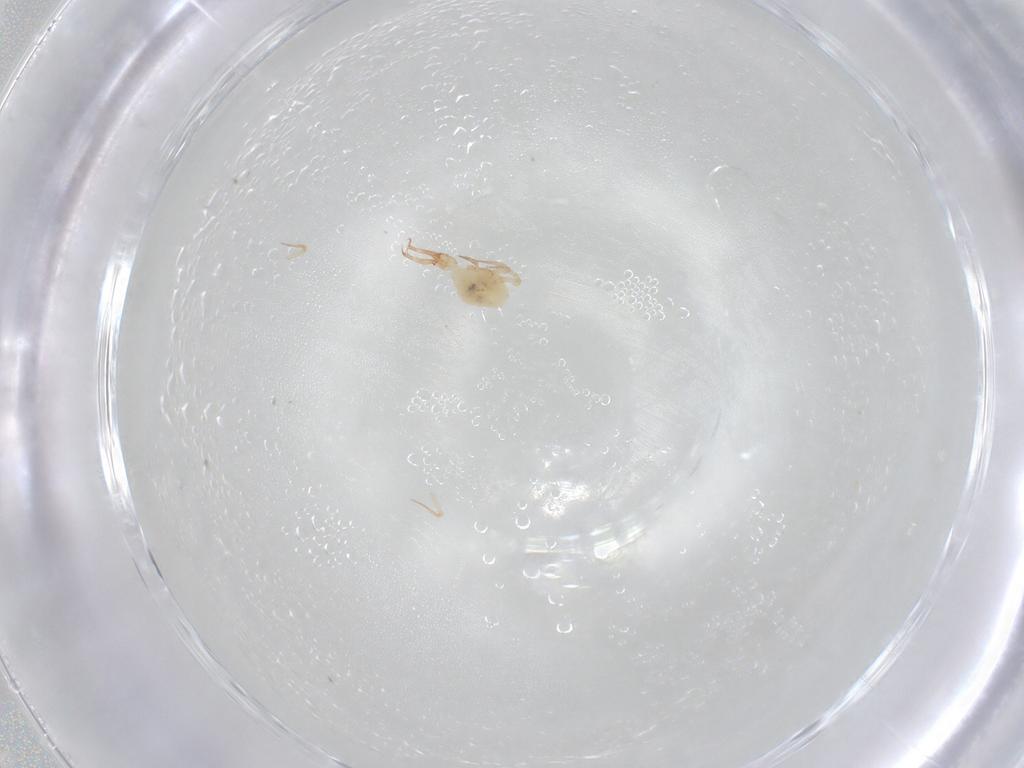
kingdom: Animalia
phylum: Arthropoda
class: Arachnida
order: Trombidiformes
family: Cunaxidae
